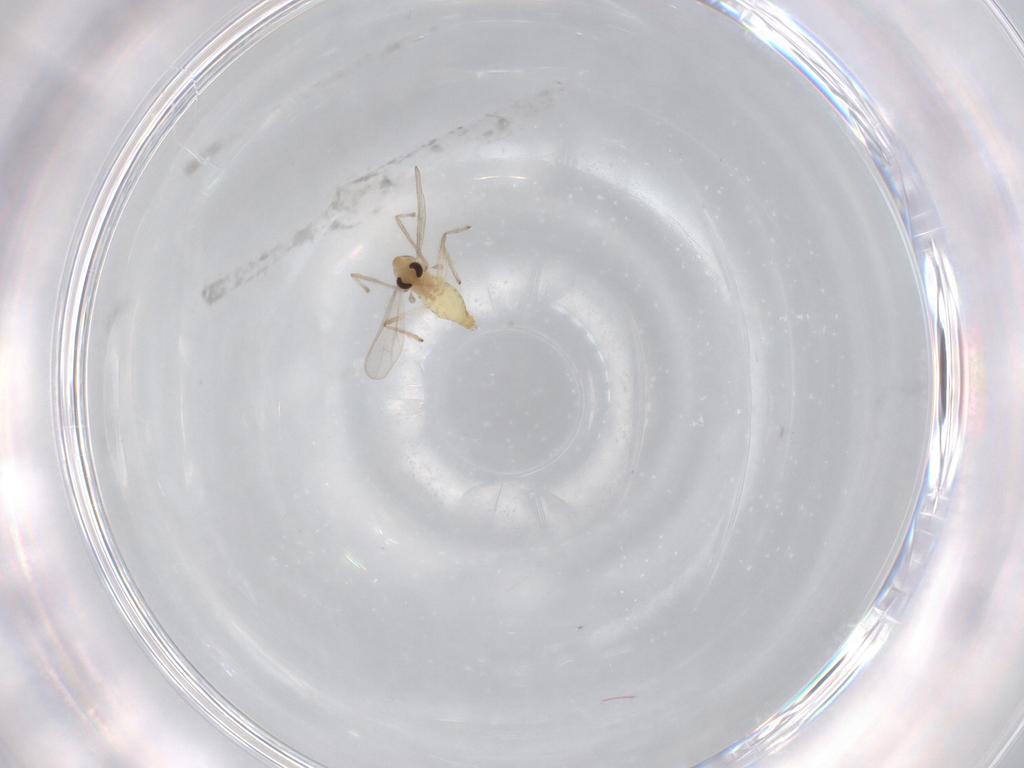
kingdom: Animalia
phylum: Arthropoda
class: Insecta
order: Diptera
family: Chironomidae
